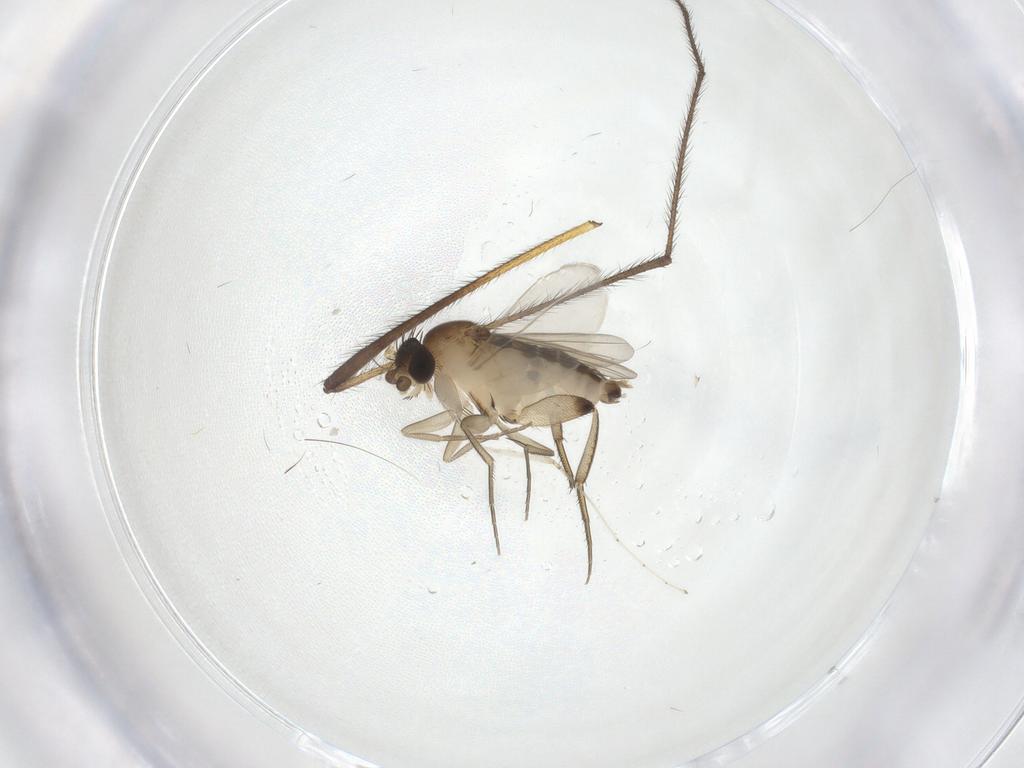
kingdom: Animalia
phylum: Arthropoda
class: Insecta
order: Diptera
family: Phoridae
